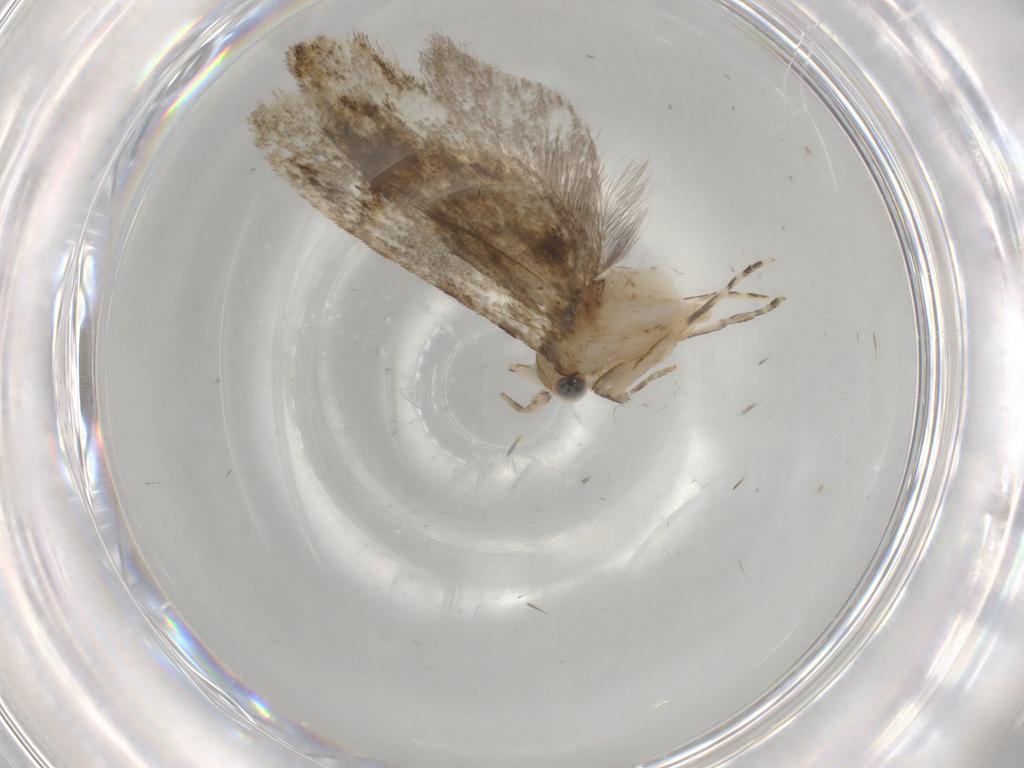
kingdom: Animalia
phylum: Arthropoda
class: Insecta
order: Lepidoptera
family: Tineidae
